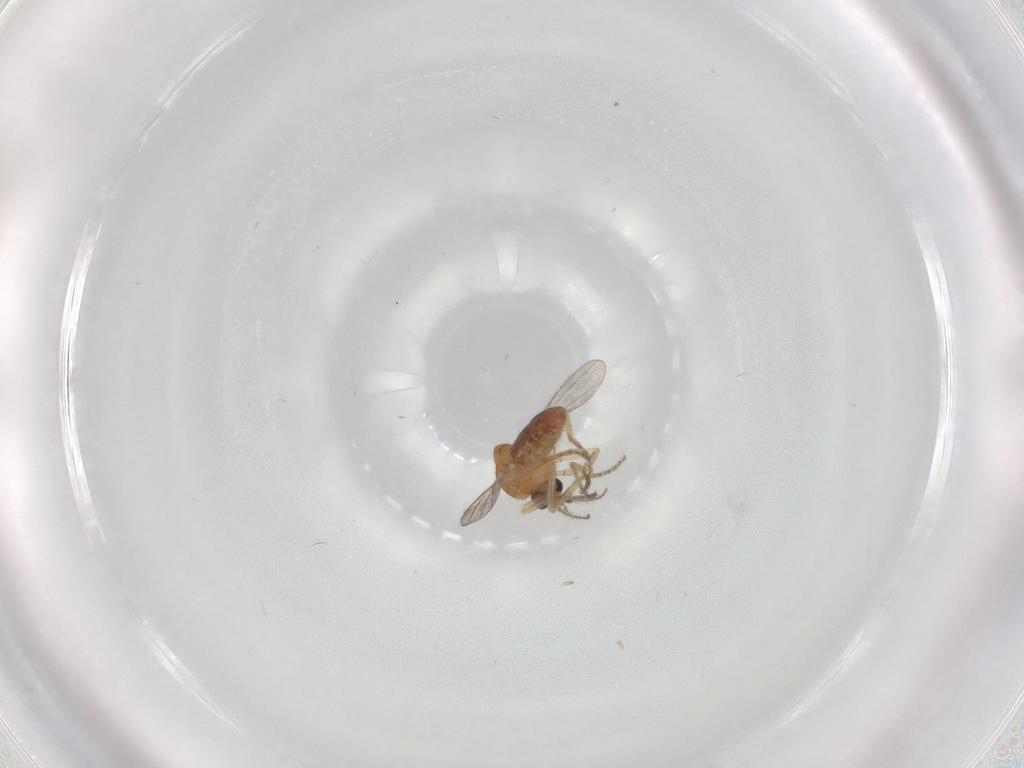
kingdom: Animalia
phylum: Arthropoda
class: Insecta
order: Diptera
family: Ceratopogonidae
